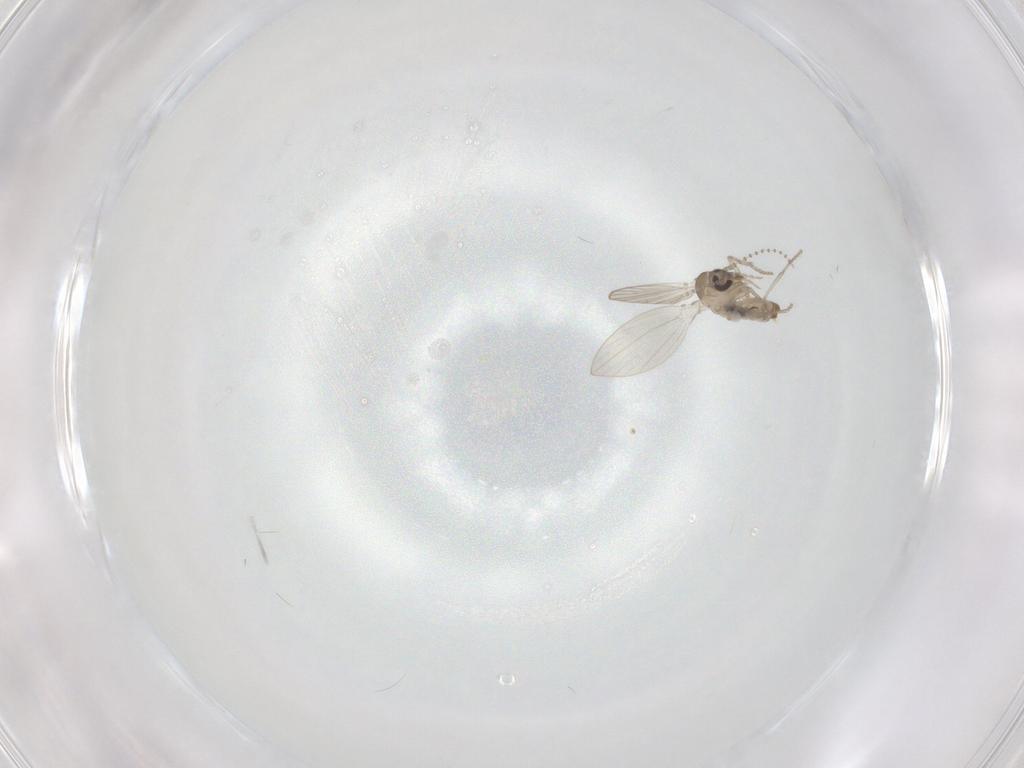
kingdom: Animalia
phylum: Arthropoda
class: Insecta
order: Diptera
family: Psychodidae
